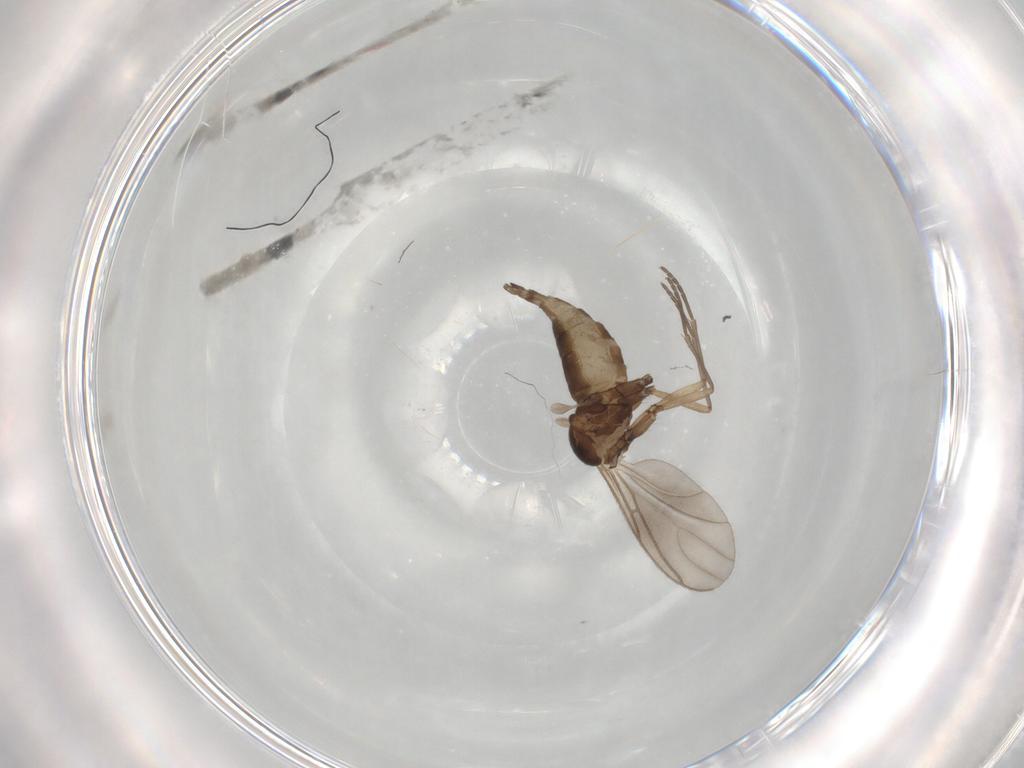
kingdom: Animalia
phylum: Arthropoda
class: Insecta
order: Diptera
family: Sciaridae
